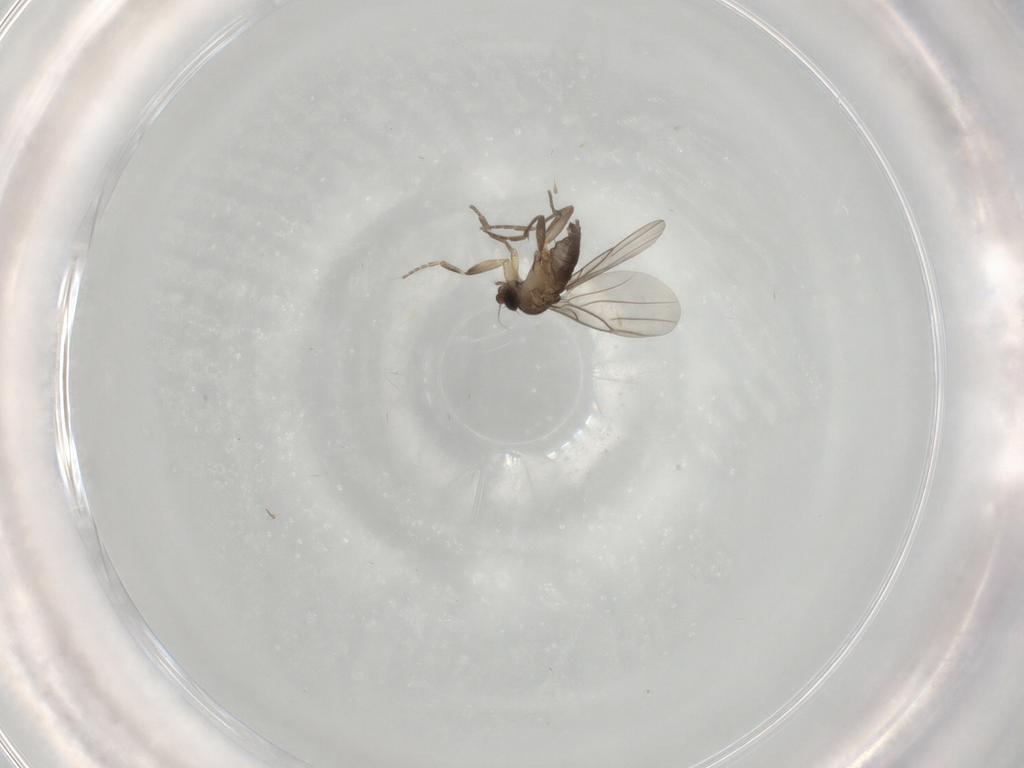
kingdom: Animalia
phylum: Arthropoda
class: Insecta
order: Diptera
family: Phoridae
